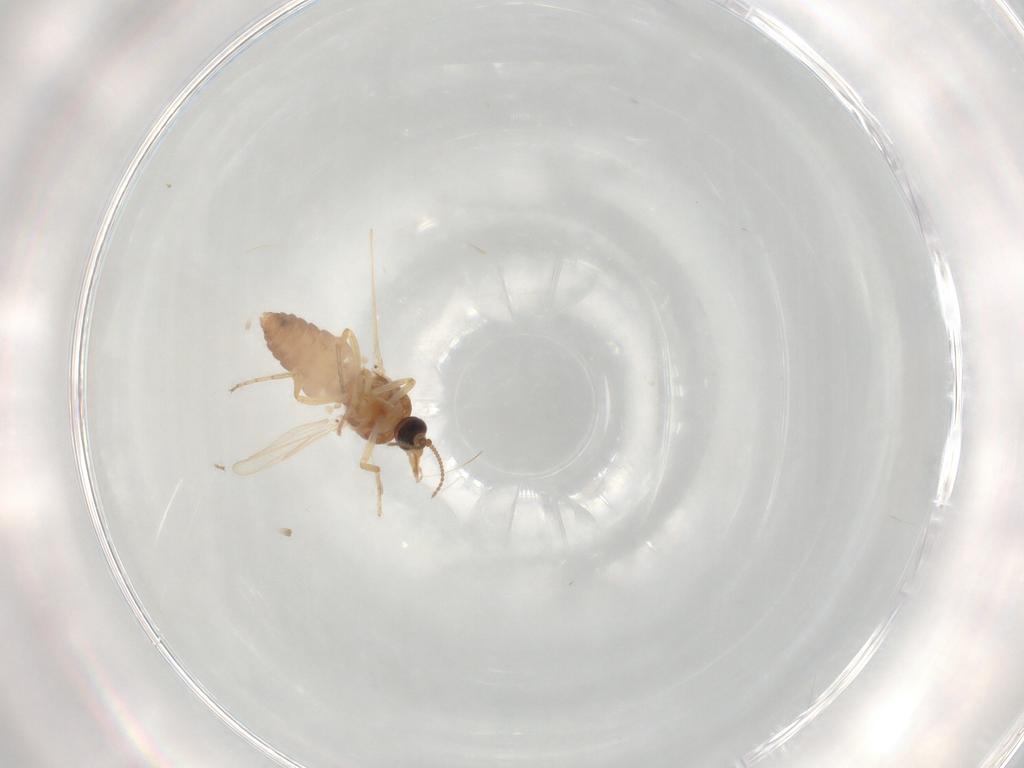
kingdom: Animalia
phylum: Arthropoda
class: Insecta
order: Diptera
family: Ceratopogonidae
